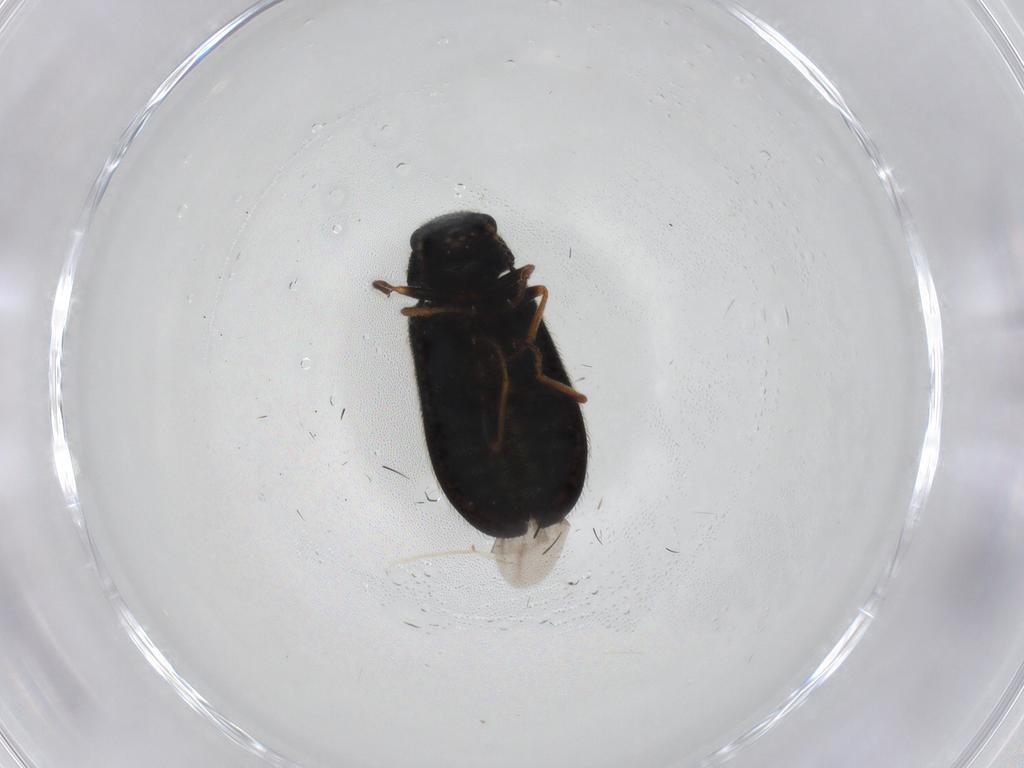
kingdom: Animalia
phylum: Arthropoda
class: Insecta
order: Coleoptera
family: Melyridae
